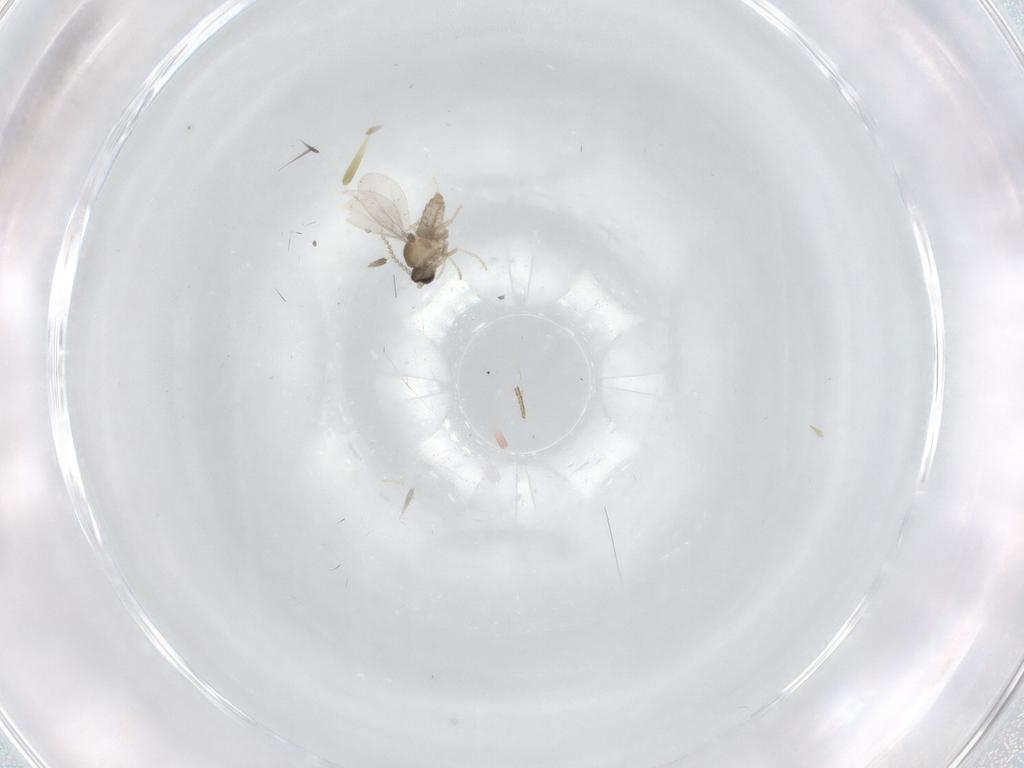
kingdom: Animalia
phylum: Arthropoda
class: Insecta
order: Diptera
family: Cecidomyiidae
